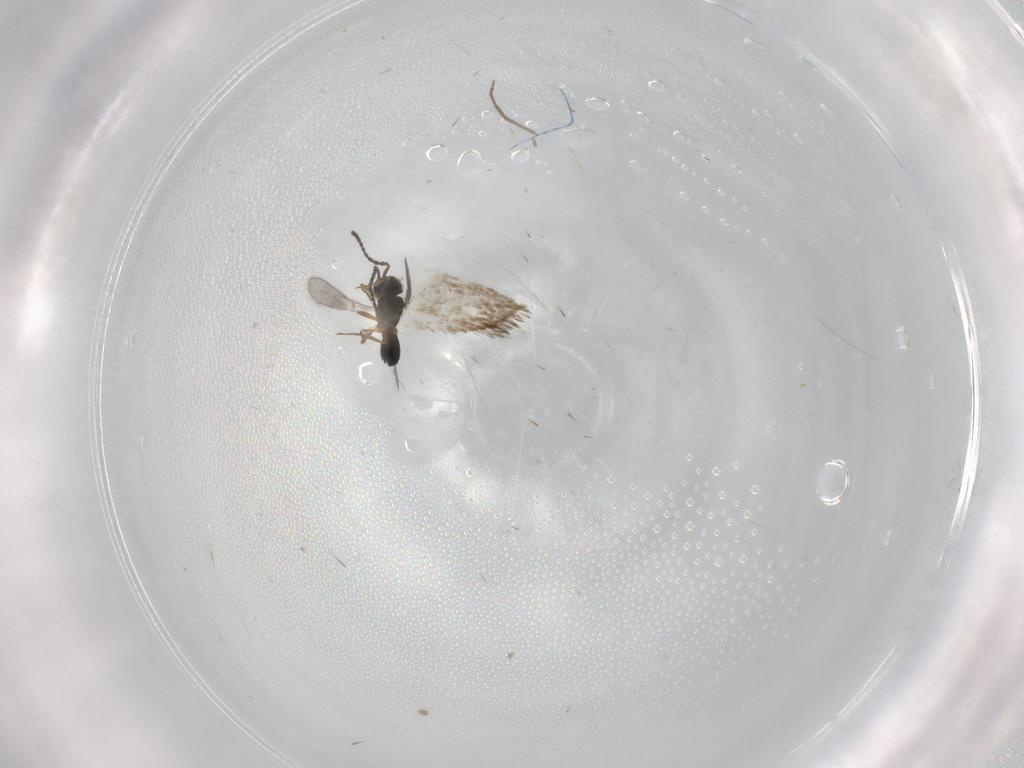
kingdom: Animalia
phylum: Arthropoda
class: Insecta
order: Hymenoptera
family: Scelionidae
